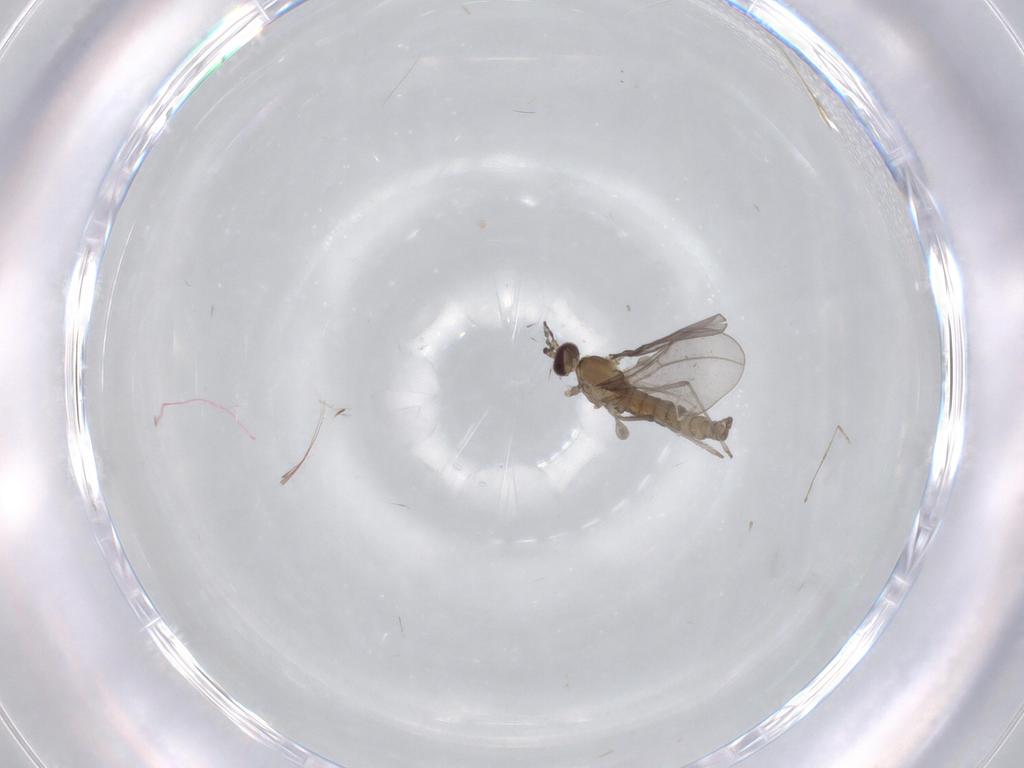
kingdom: Animalia
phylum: Arthropoda
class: Insecta
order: Diptera
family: Cecidomyiidae
